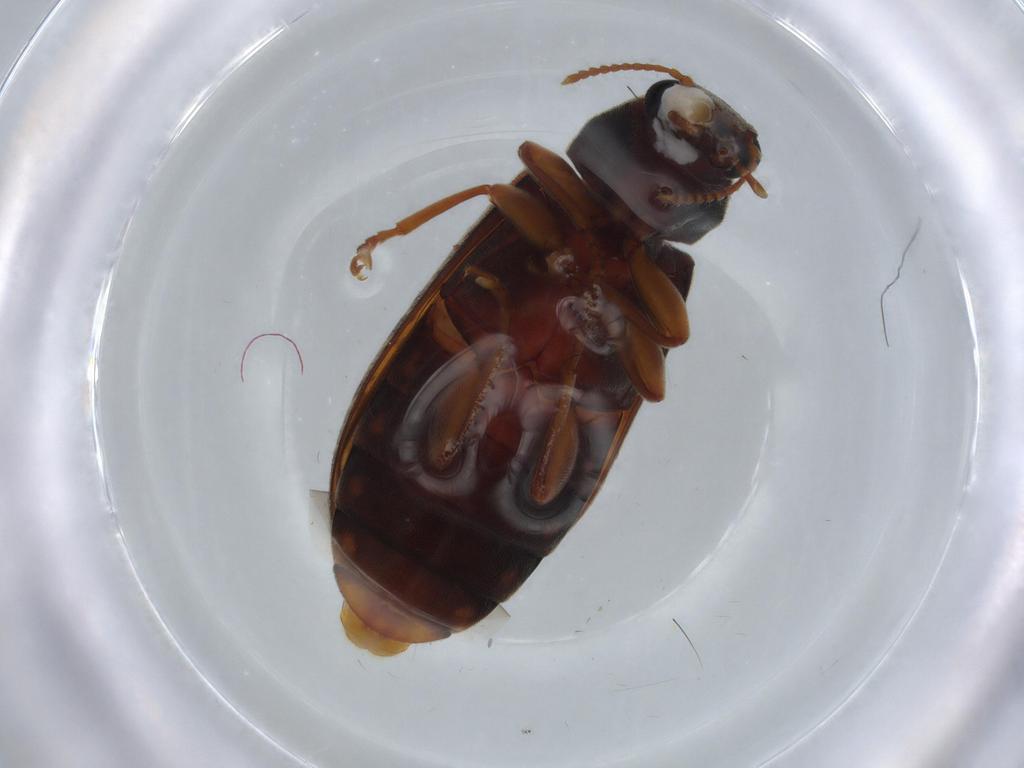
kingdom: Animalia
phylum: Arthropoda
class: Insecta
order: Coleoptera
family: Mycteridae
